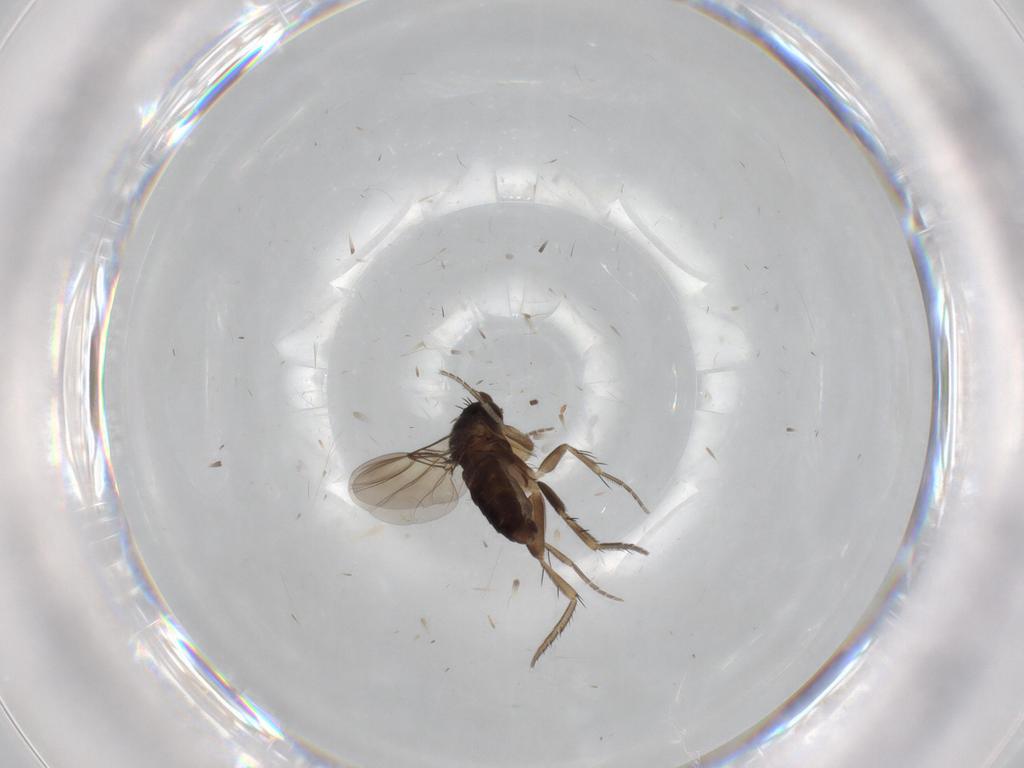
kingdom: Animalia
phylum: Arthropoda
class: Insecta
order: Diptera
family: Phoridae
